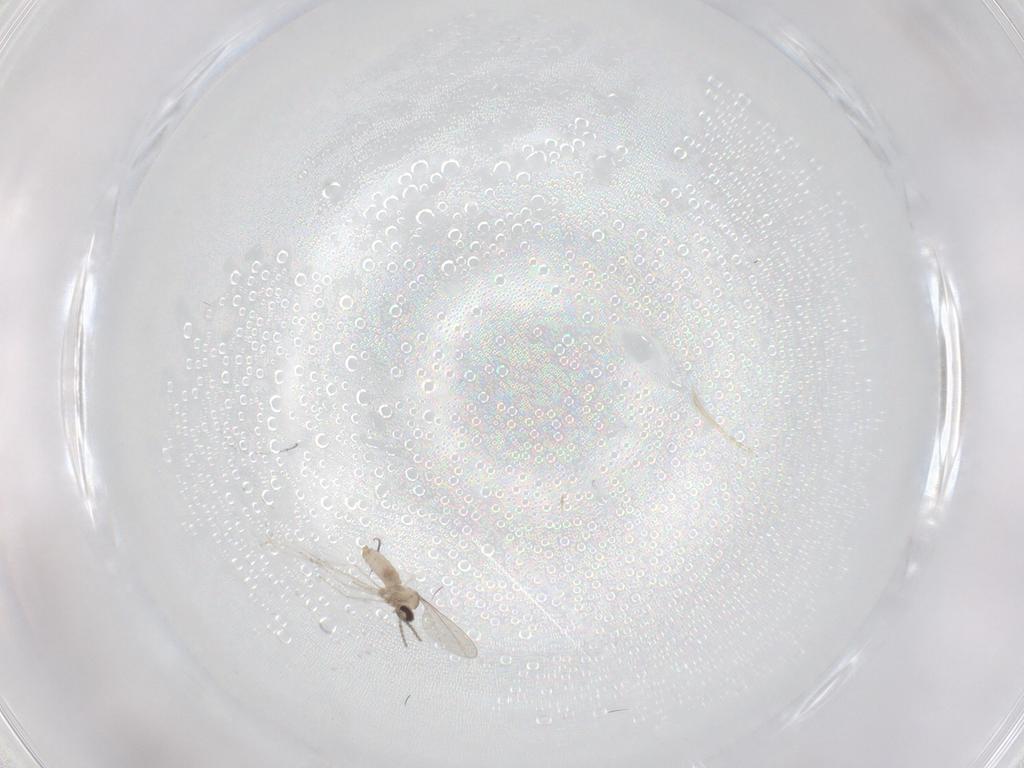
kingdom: Animalia
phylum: Arthropoda
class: Insecta
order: Diptera
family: Cecidomyiidae
